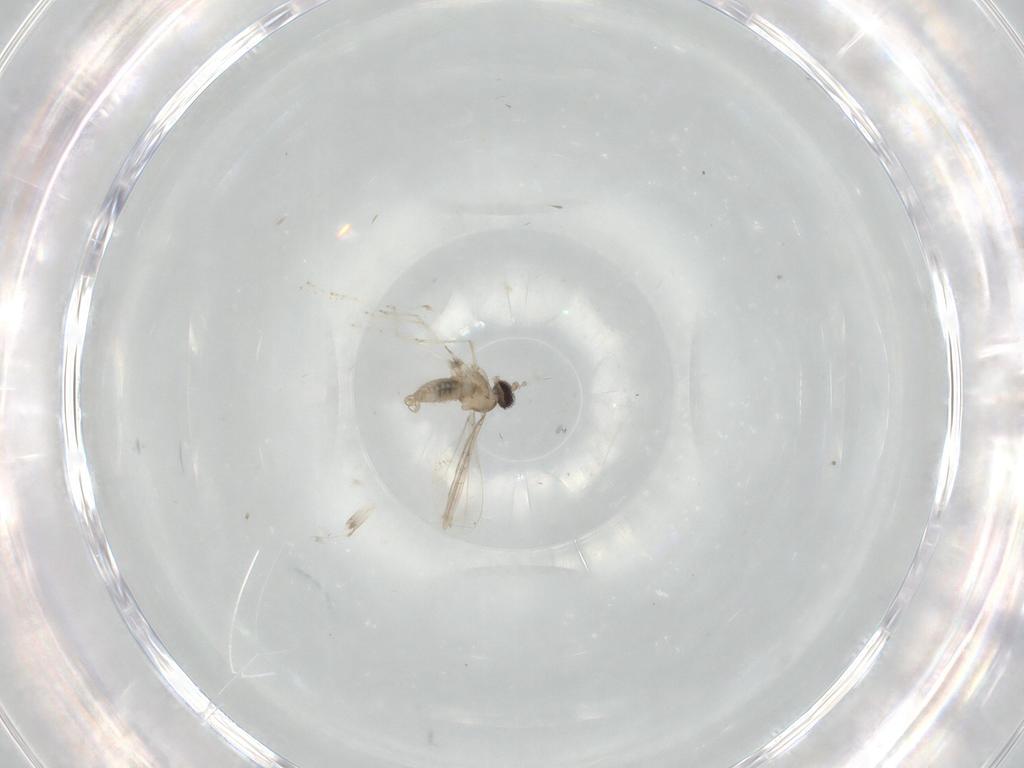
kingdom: Animalia
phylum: Arthropoda
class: Insecta
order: Diptera
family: Cecidomyiidae
